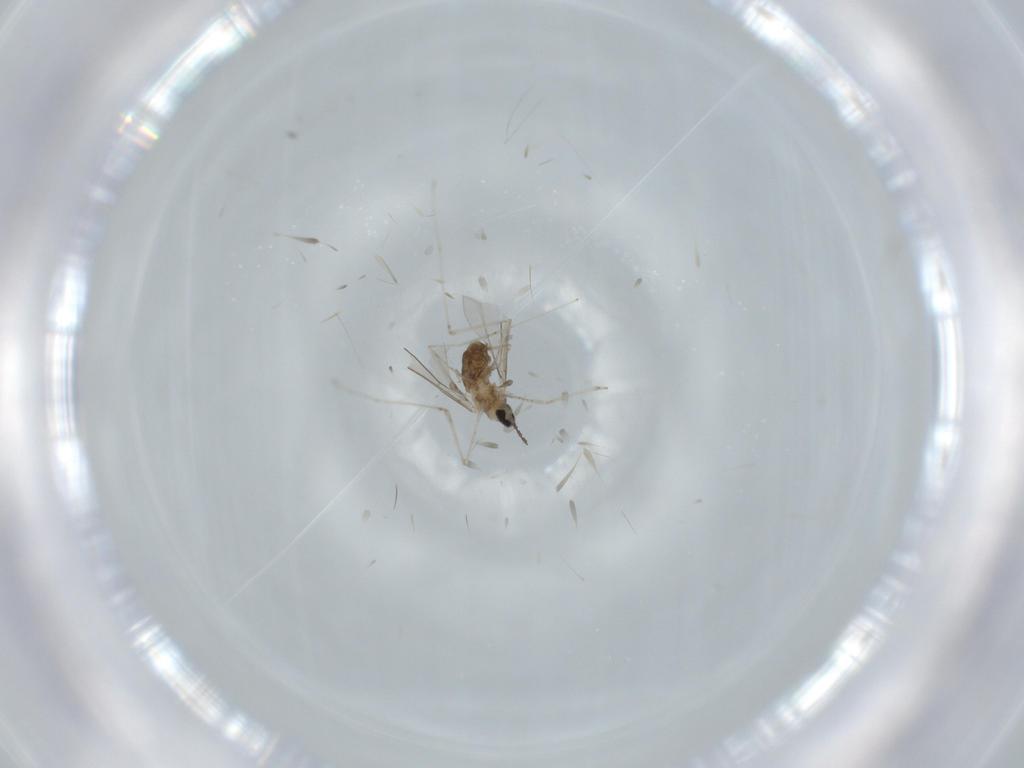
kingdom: Animalia
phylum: Arthropoda
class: Insecta
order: Diptera
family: Cecidomyiidae
